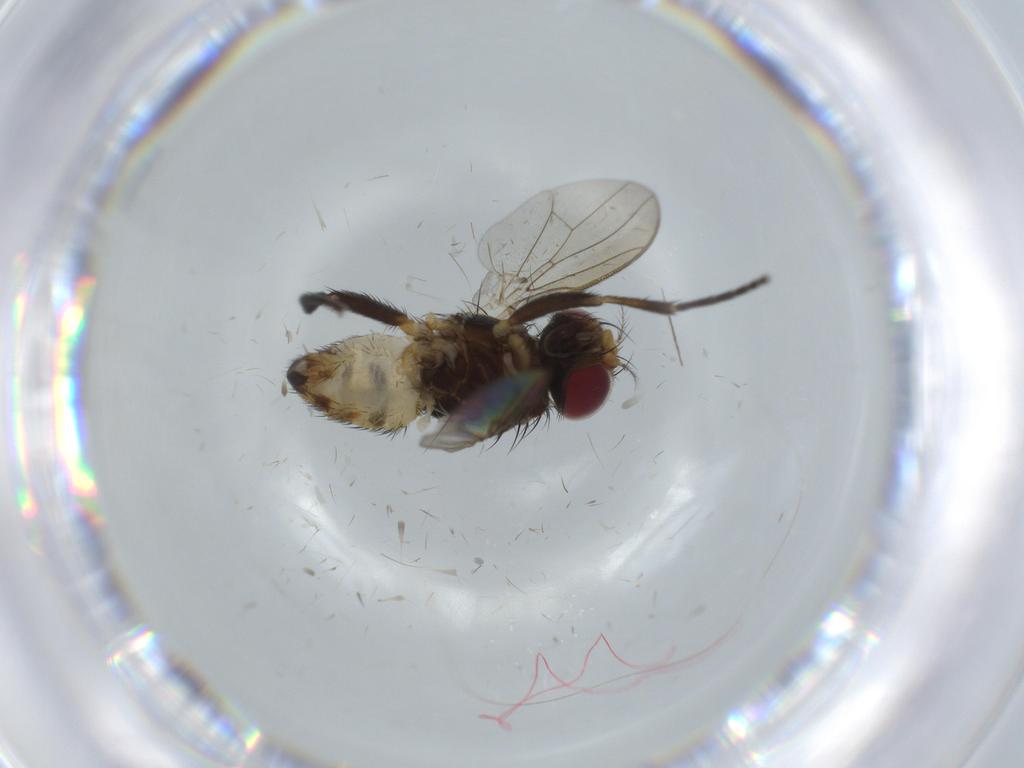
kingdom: Animalia
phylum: Arthropoda
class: Insecta
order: Diptera
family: Anthomyiidae
